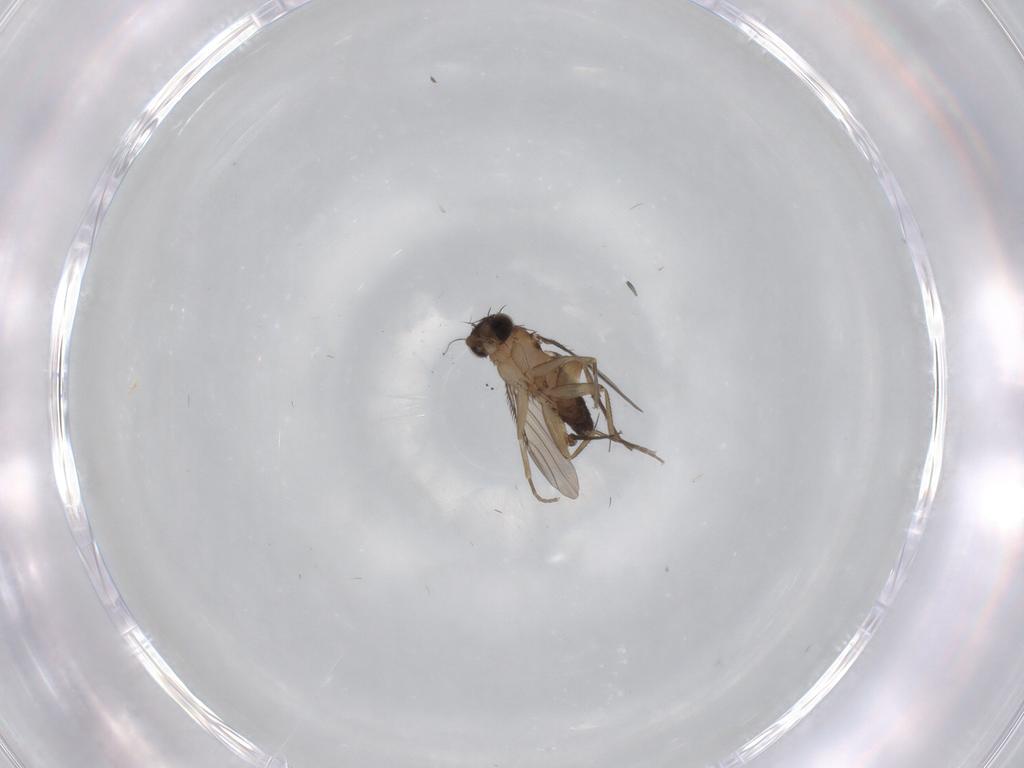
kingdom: Animalia
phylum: Arthropoda
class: Insecta
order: Diptera
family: Phoridae
